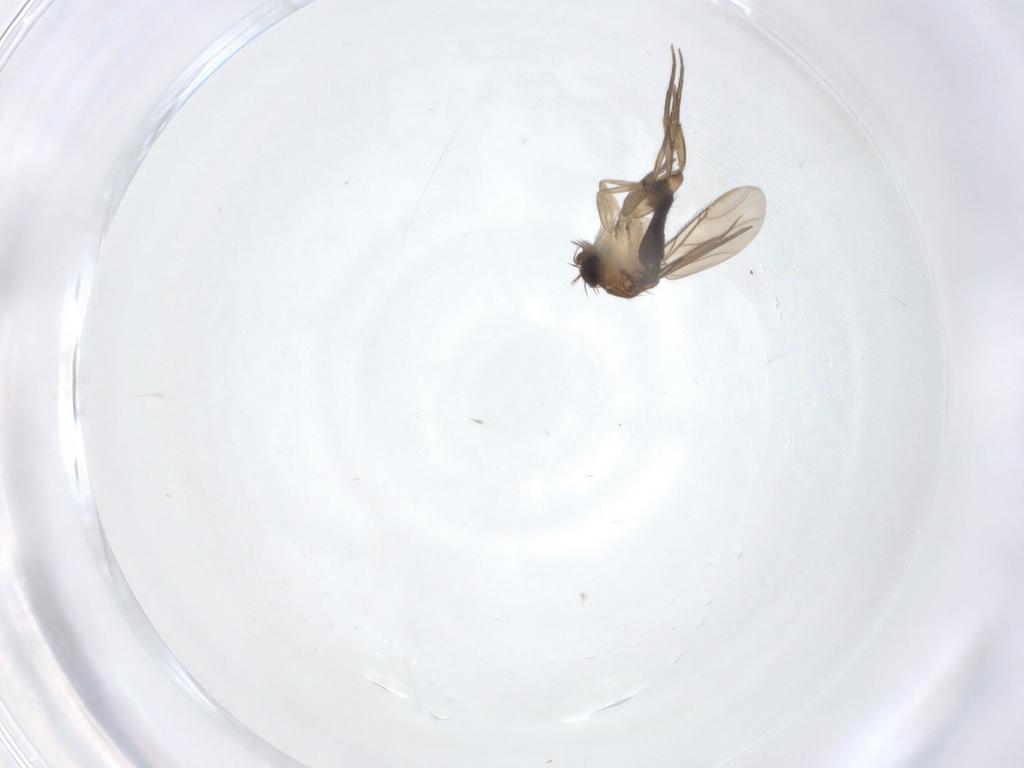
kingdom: Animalia
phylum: Arthropoda
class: Insecta
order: Diptera
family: Phoridae
